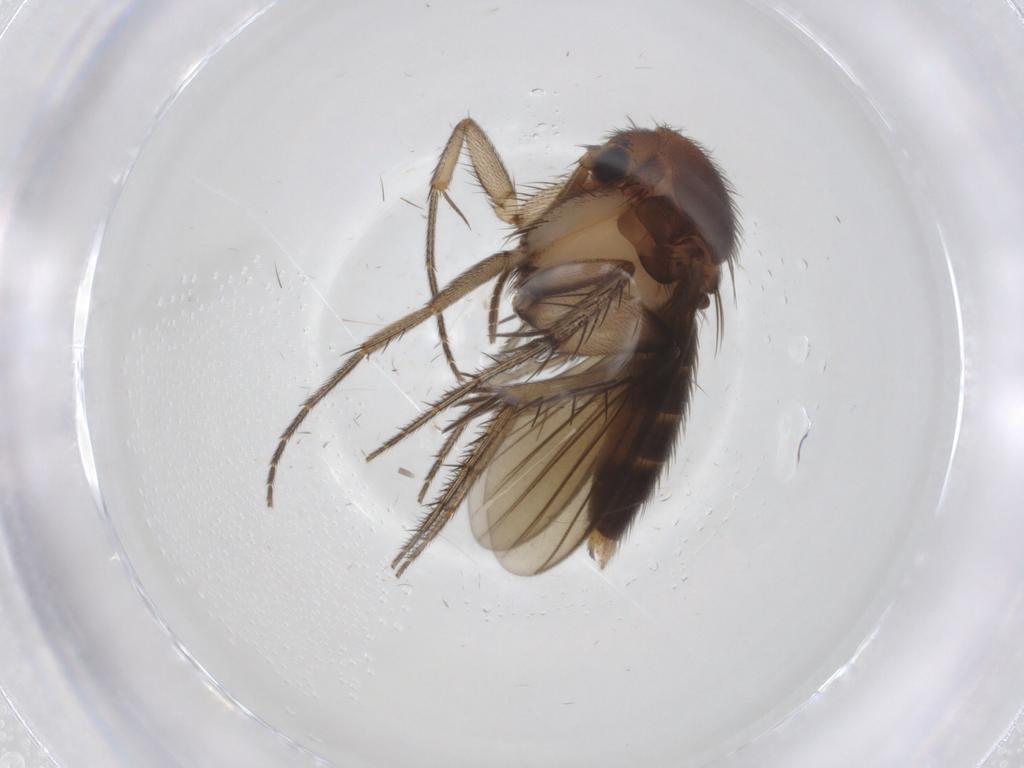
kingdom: Animalia
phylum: Arthropoda
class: Insecta
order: Diptera
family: Mycetophilidae
